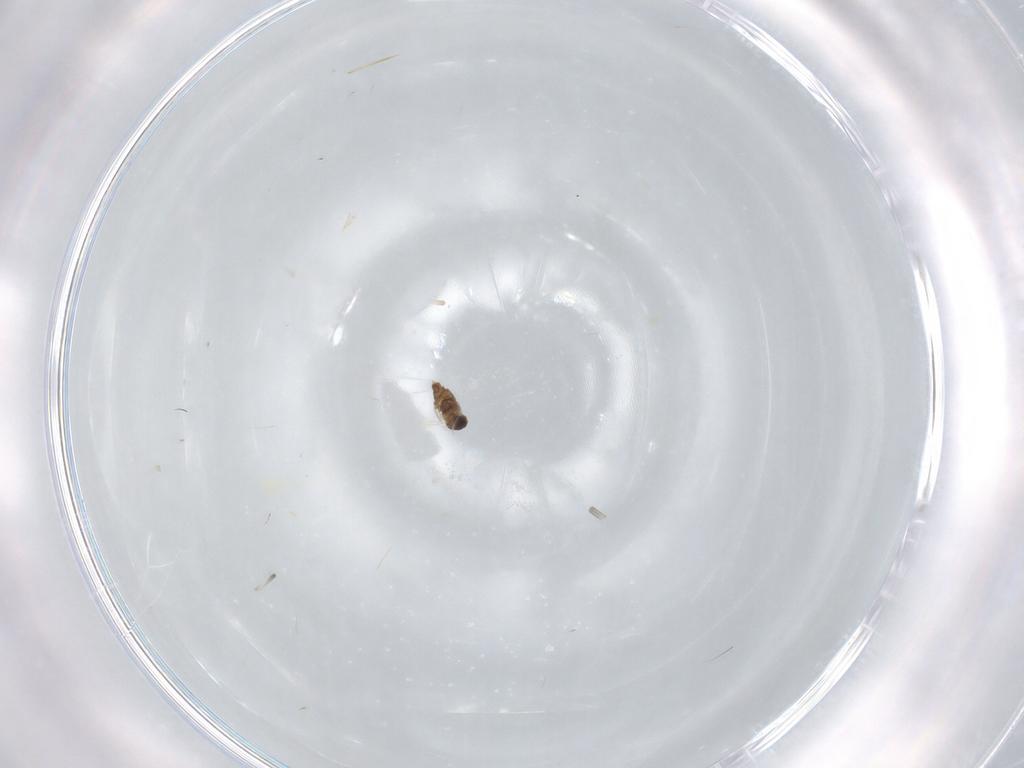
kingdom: Animalia
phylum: Arthropoda
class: Insecta
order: Diptera
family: Cecidomyiidae
